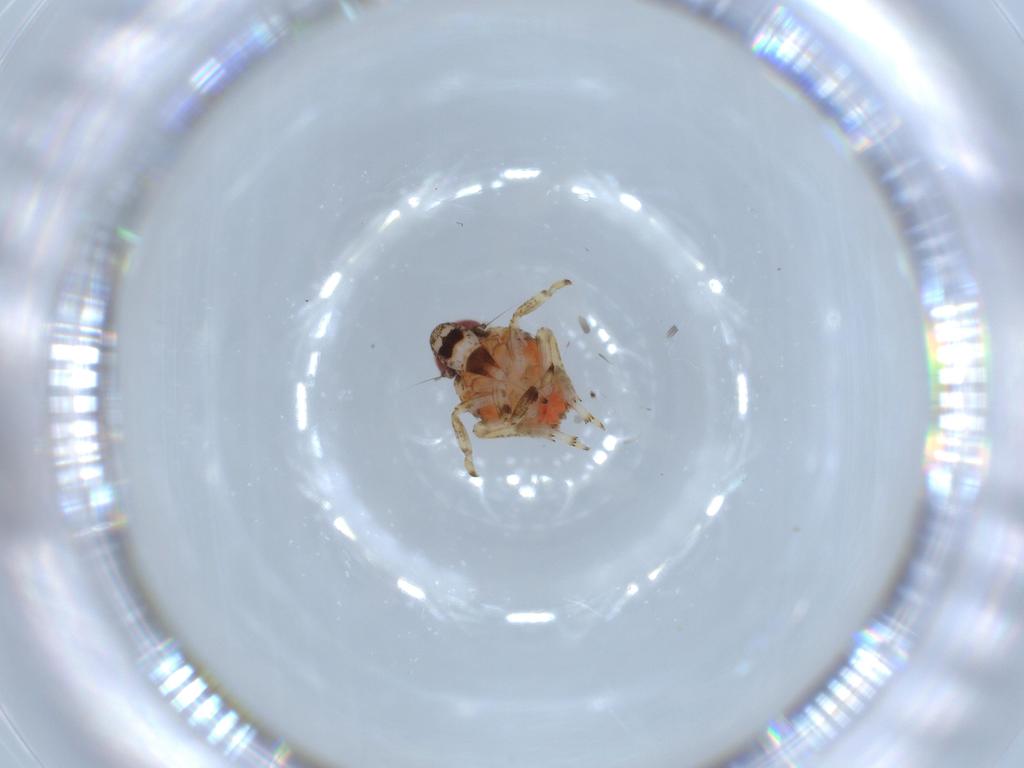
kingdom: Animalia
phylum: Arthropoda
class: Insecta
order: Hemiptera
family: Issidae
